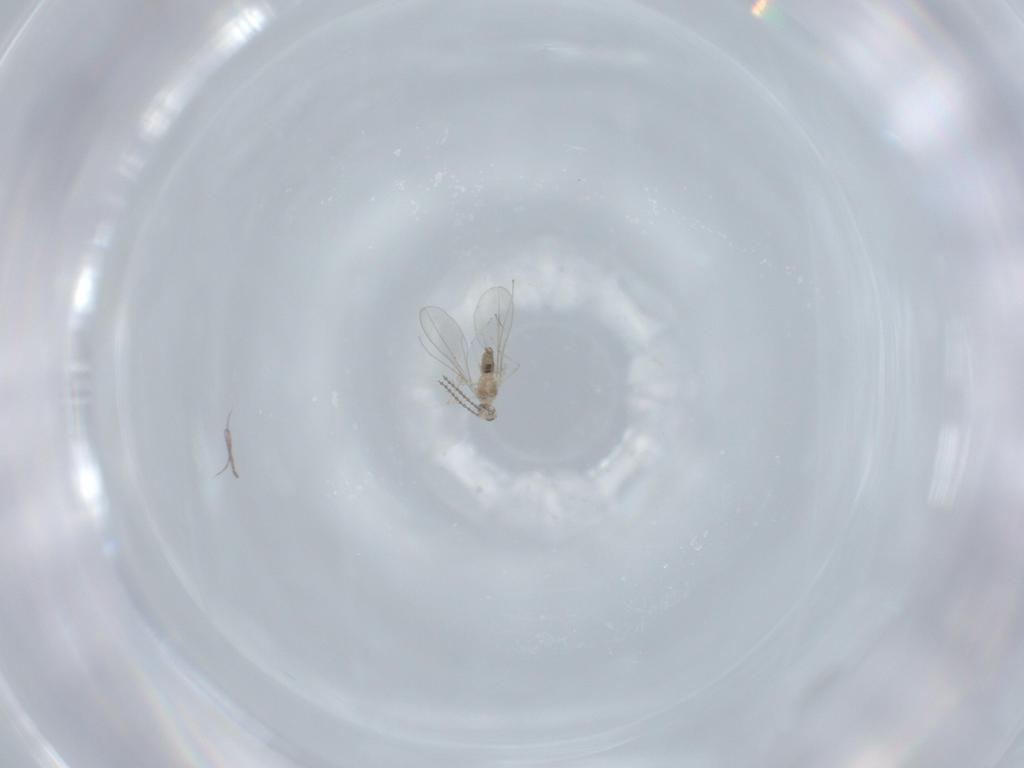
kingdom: Animalia
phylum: Arthropoda
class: Insecta
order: Diptera
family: Cecidomyiidae
